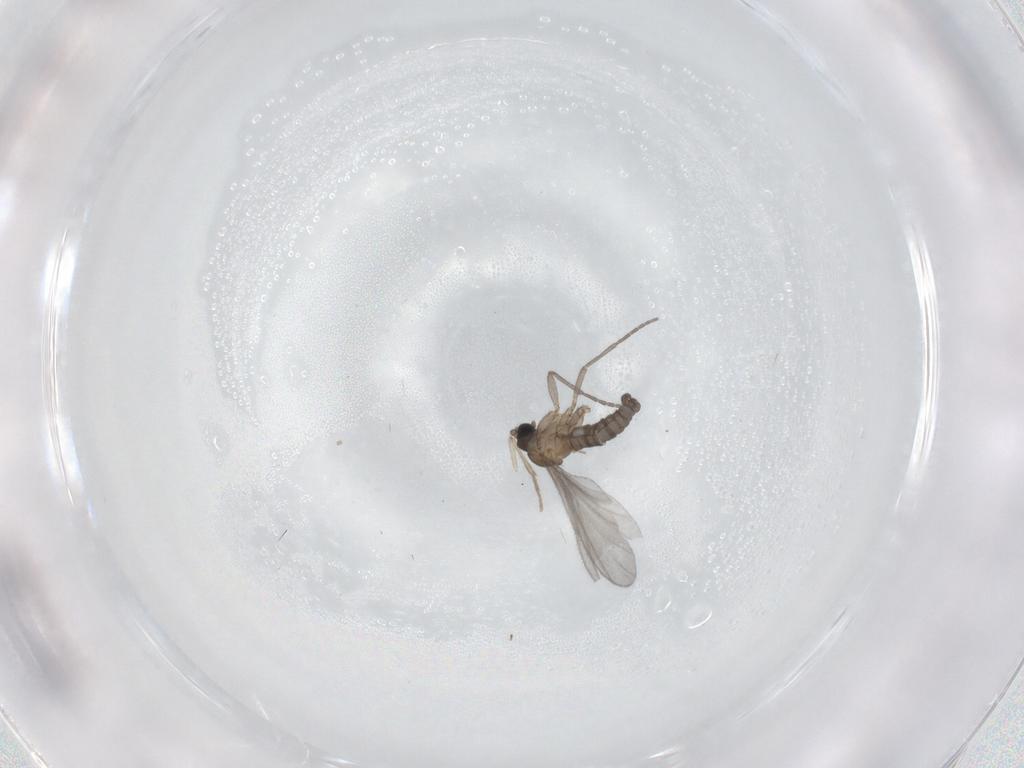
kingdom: Animalia
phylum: Arthropoda
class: Insecta
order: Diptera
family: Sciaridae
